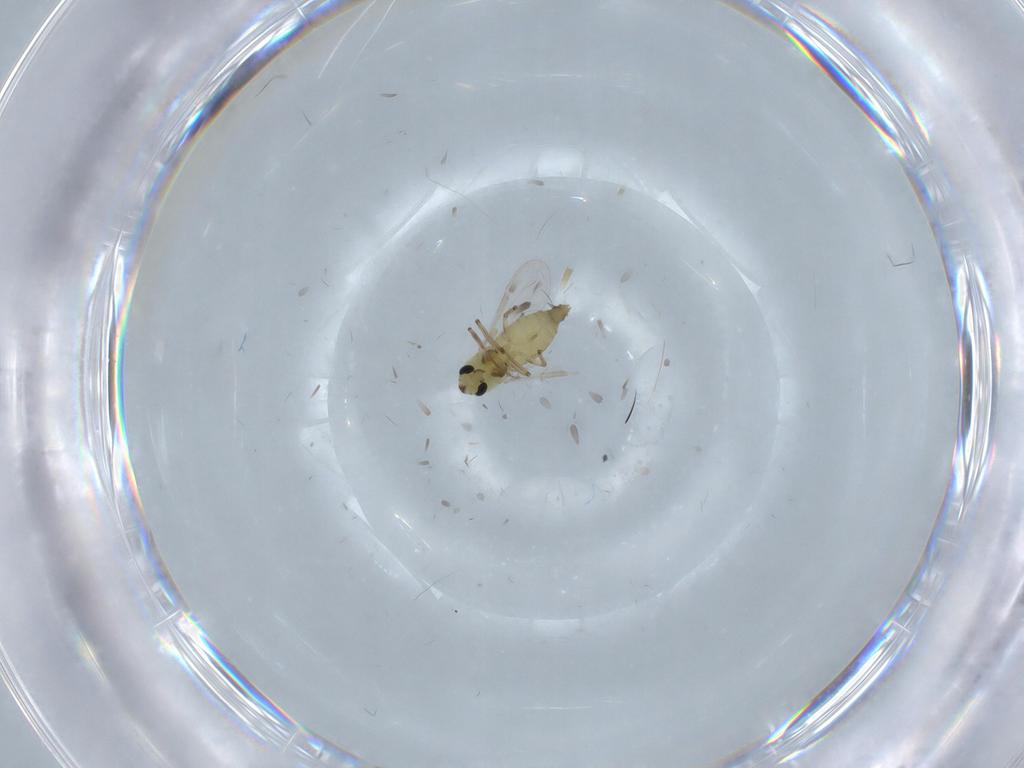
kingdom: Animalia
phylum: Arthropoda
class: Insecta
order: Diptera
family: Chironomidae
